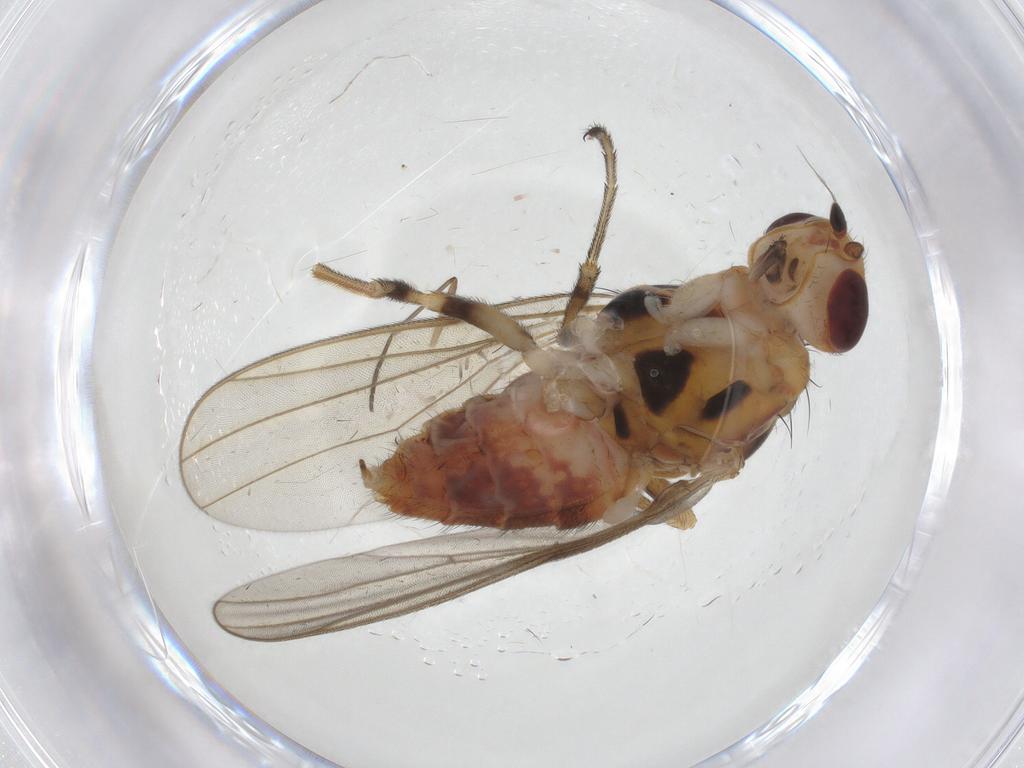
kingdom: Animalia
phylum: Arthropoda
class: Insecta
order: Diptera
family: Chloropidae
